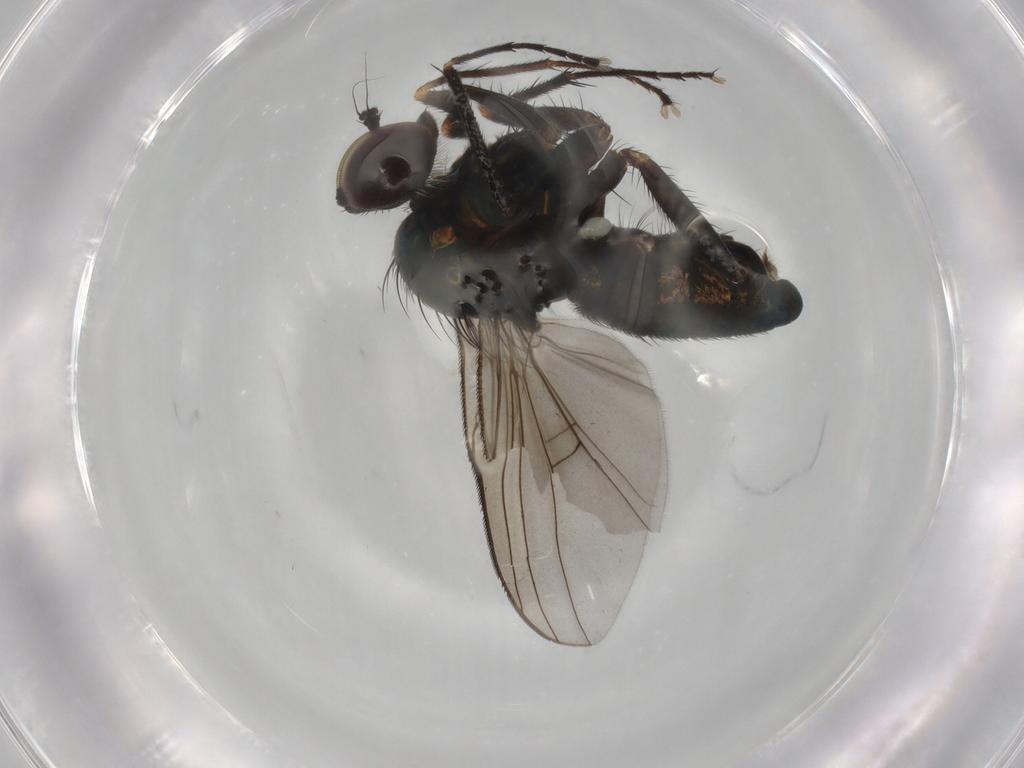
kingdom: Animalia
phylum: Arthropoda
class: Insecta
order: Diptera
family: Dolichopodidae
